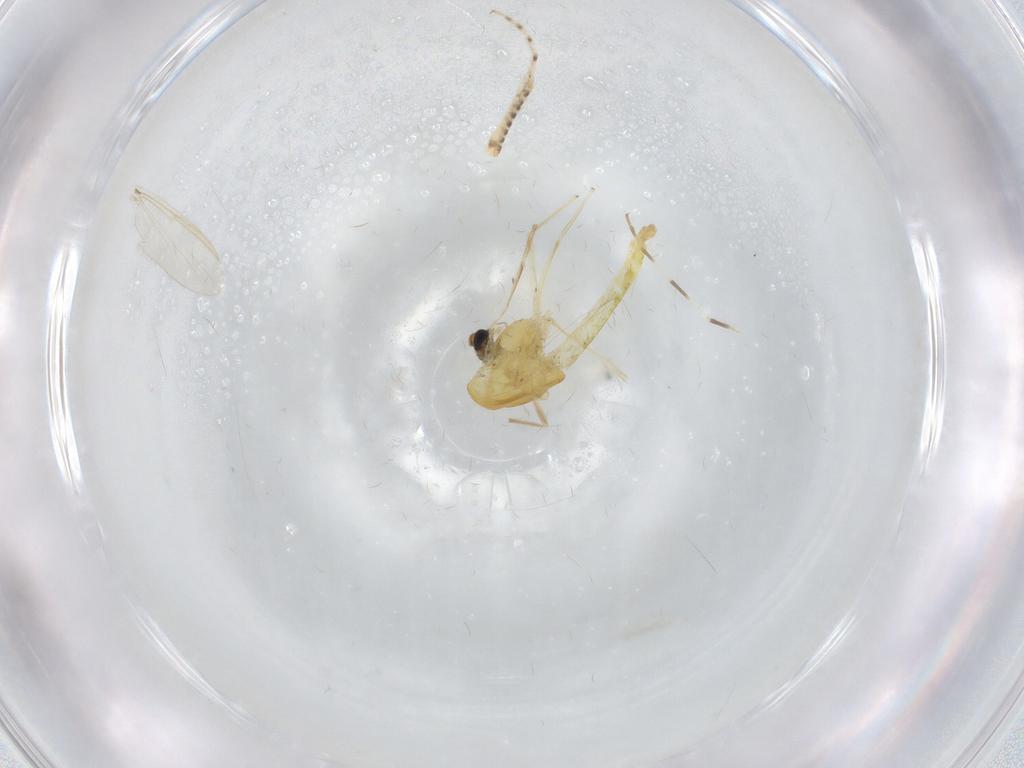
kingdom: Animalia
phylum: Arthropoda
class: Insecta
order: Diptera
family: Chironomidae
